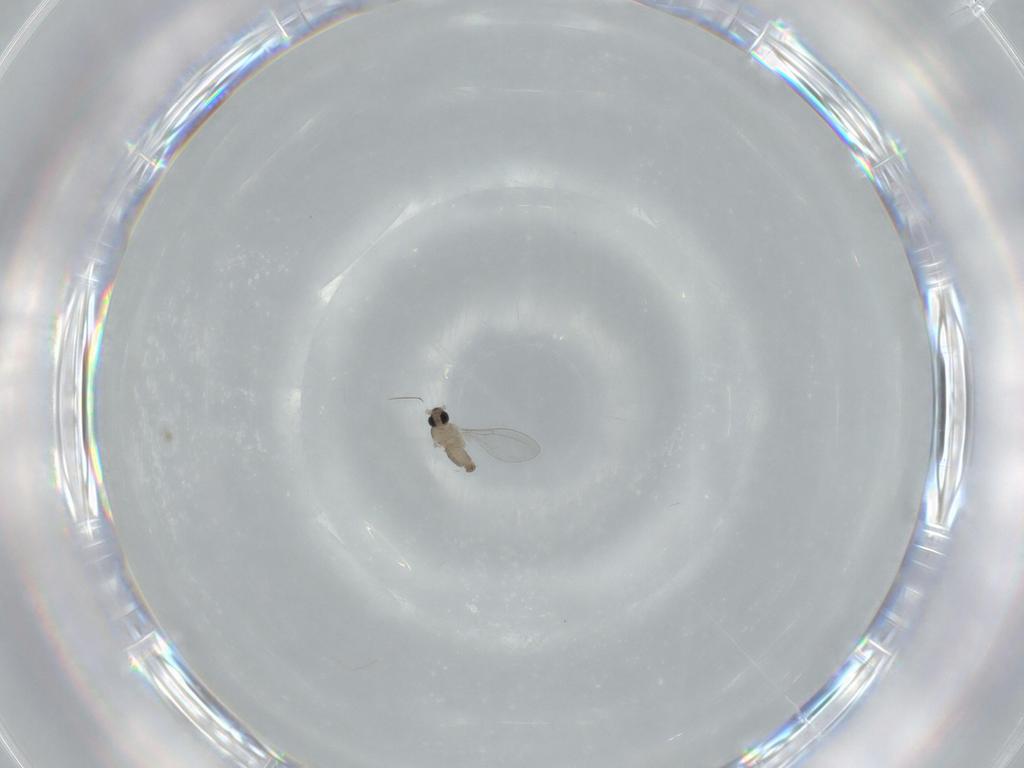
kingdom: Animalia
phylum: Arthropoda
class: Insecta
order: Diptera
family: Cecidomyiidae
